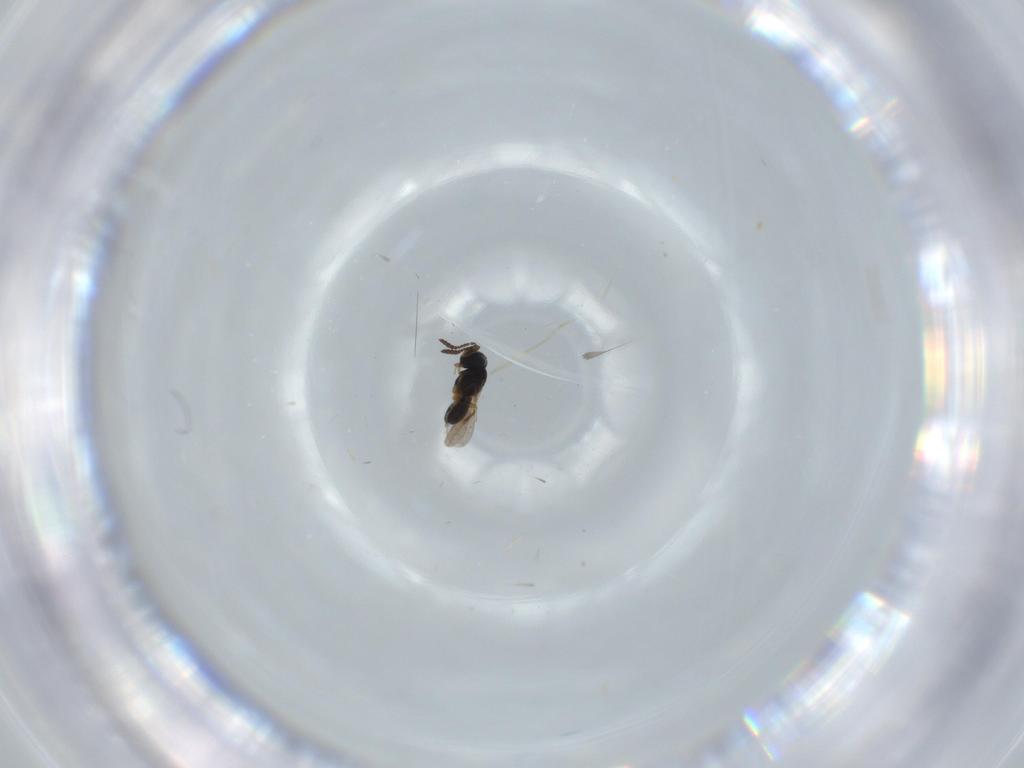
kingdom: Animalia
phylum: Arthropoda
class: Insecta
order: Hymenoptera
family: Scelionidae
